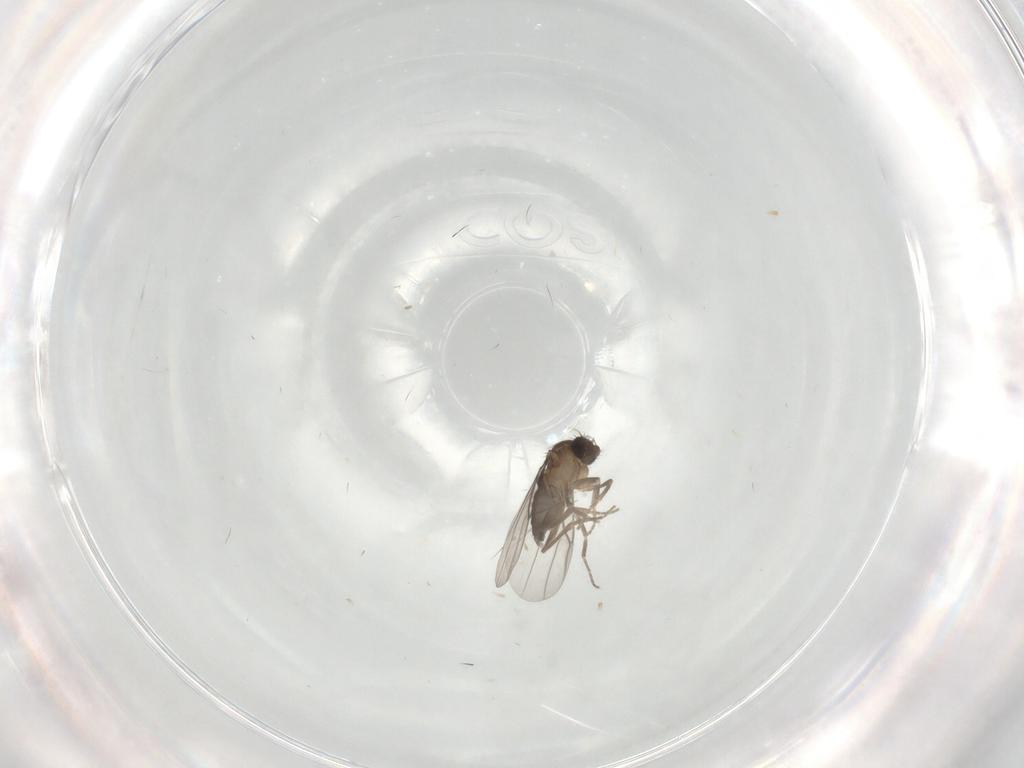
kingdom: Animalia
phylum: Arthropoda
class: Insecta
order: Diptera
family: Phoridae
